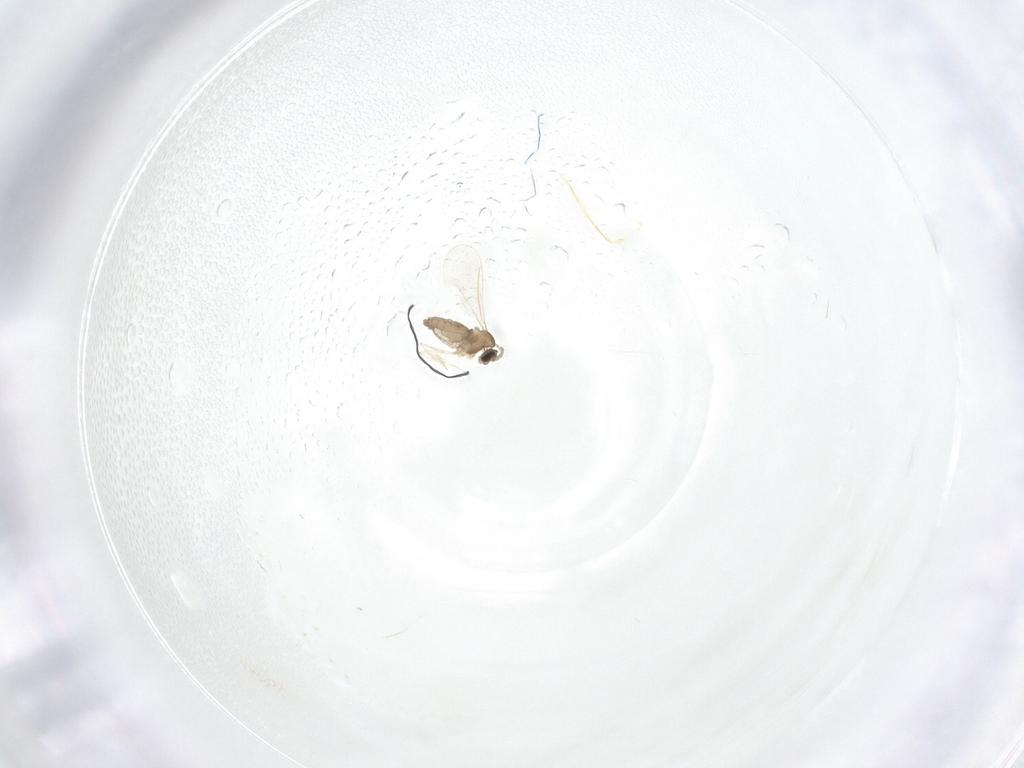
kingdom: Animalia
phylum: Arthropoda
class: Insecta
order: Diptera
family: Cecidomyiidae
